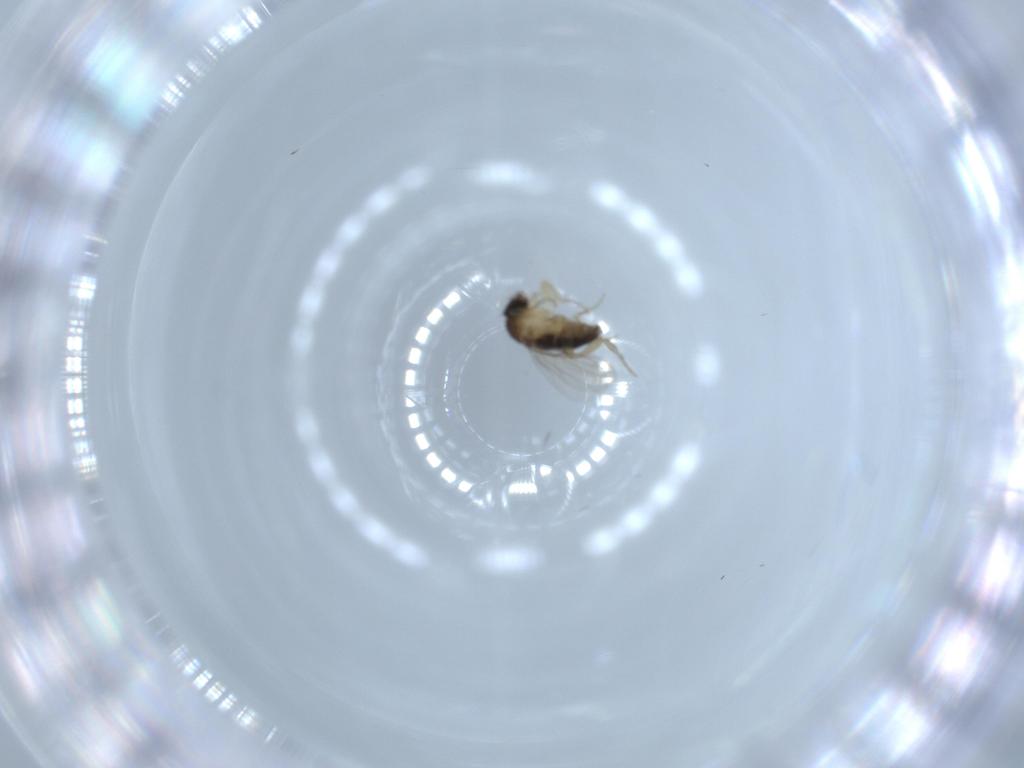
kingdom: Animalia
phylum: Arthropoda
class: Insecta
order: Diptera
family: Phoridae
